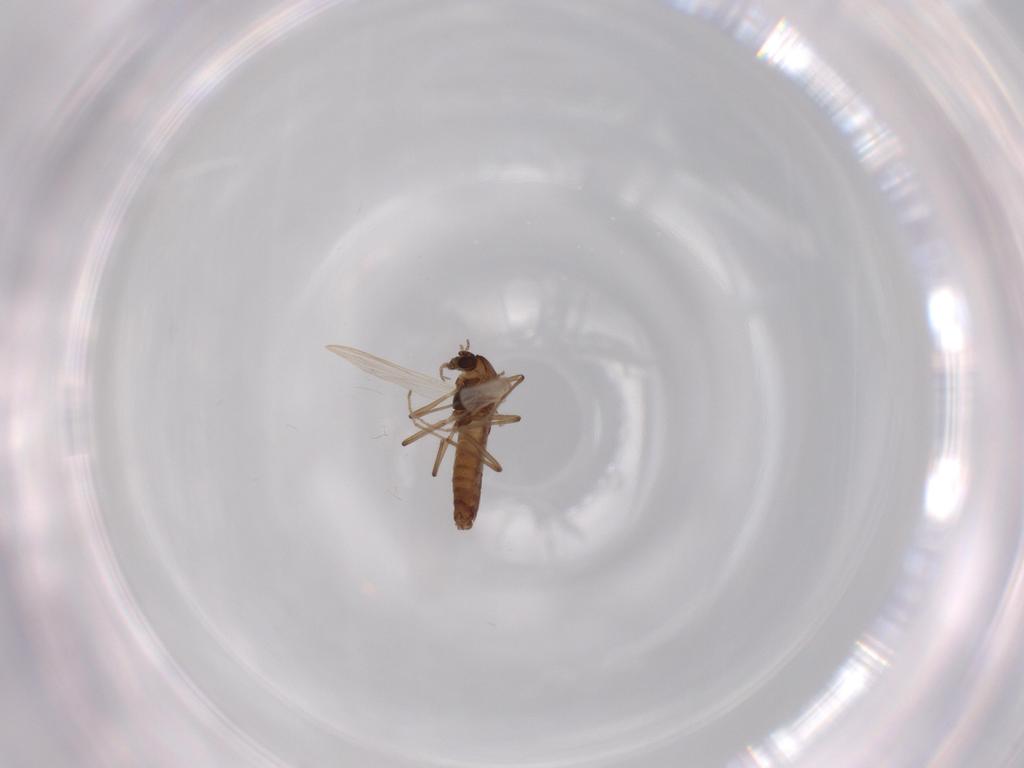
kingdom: Animalia
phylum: Arthropoda
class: Insecta
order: Diptera
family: Chironomidae
